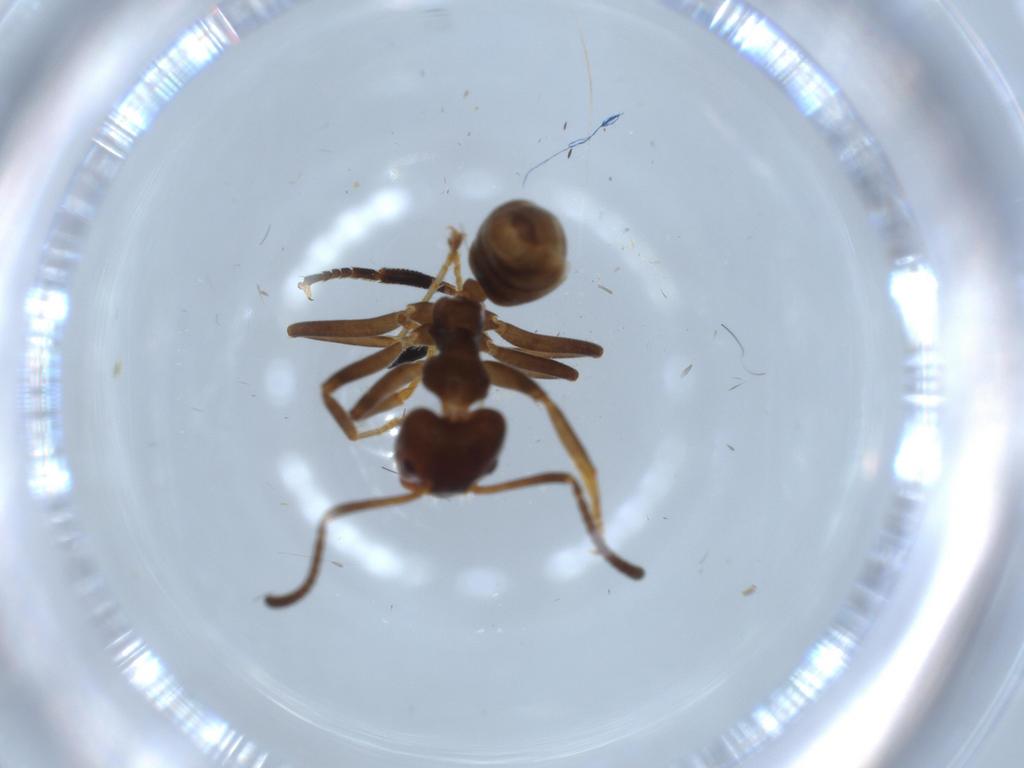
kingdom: Animalia
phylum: Arthropoda
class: Insecta
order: Hymenoptera
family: Formicidae
